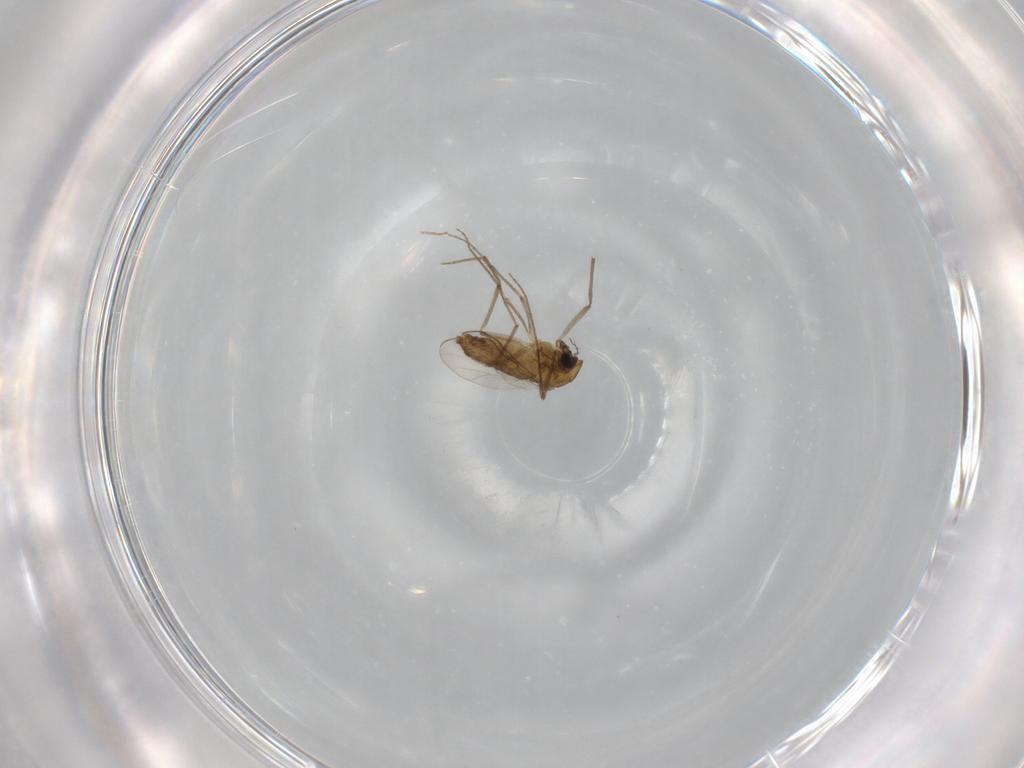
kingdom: Animalia
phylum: Arthropoda
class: Insecta
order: Diptera
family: Chironomidae
